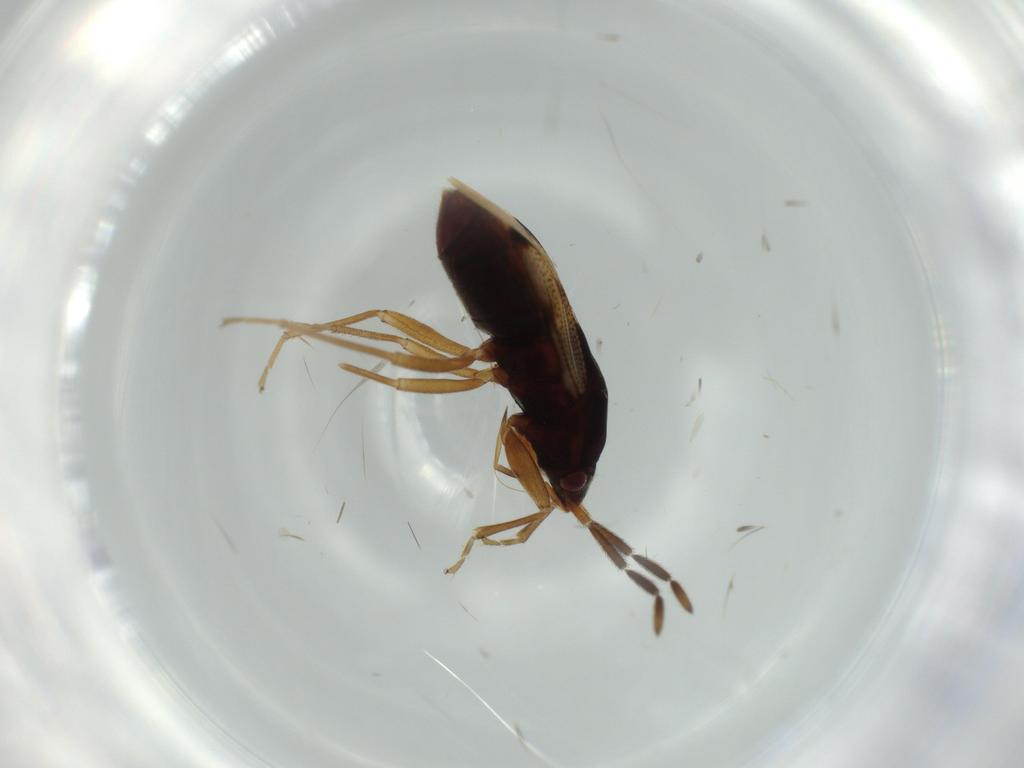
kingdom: Animalia
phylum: Arthropoda
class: Insecta
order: Hemiptera
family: Rhyparochromidae
